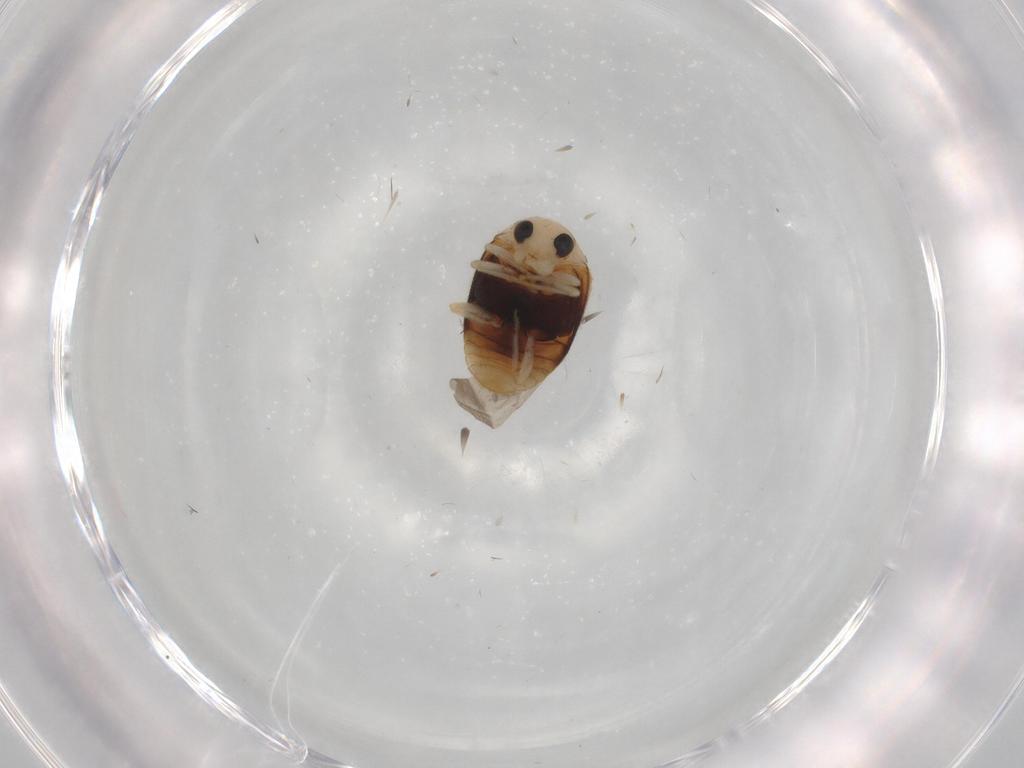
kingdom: Animalia
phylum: Arthropoda
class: Insecta
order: Coleoptera
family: Coccinellidae
